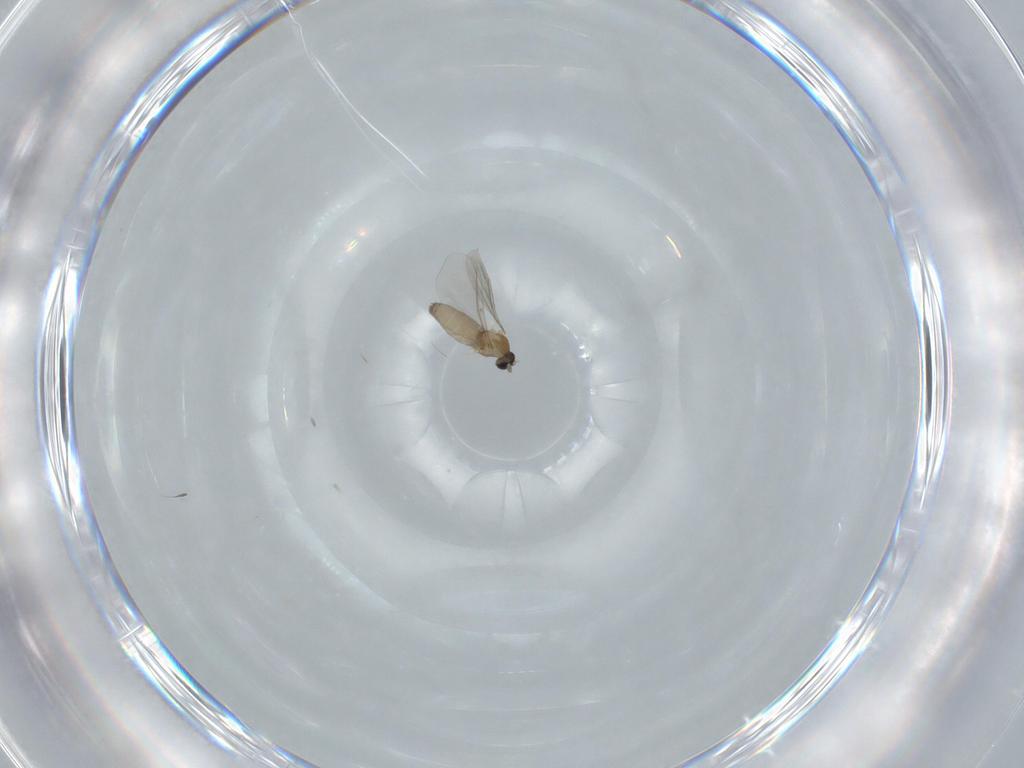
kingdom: Animalia
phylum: Arthropoda
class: Insecta
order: Diptera
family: Cecidomyiidae
